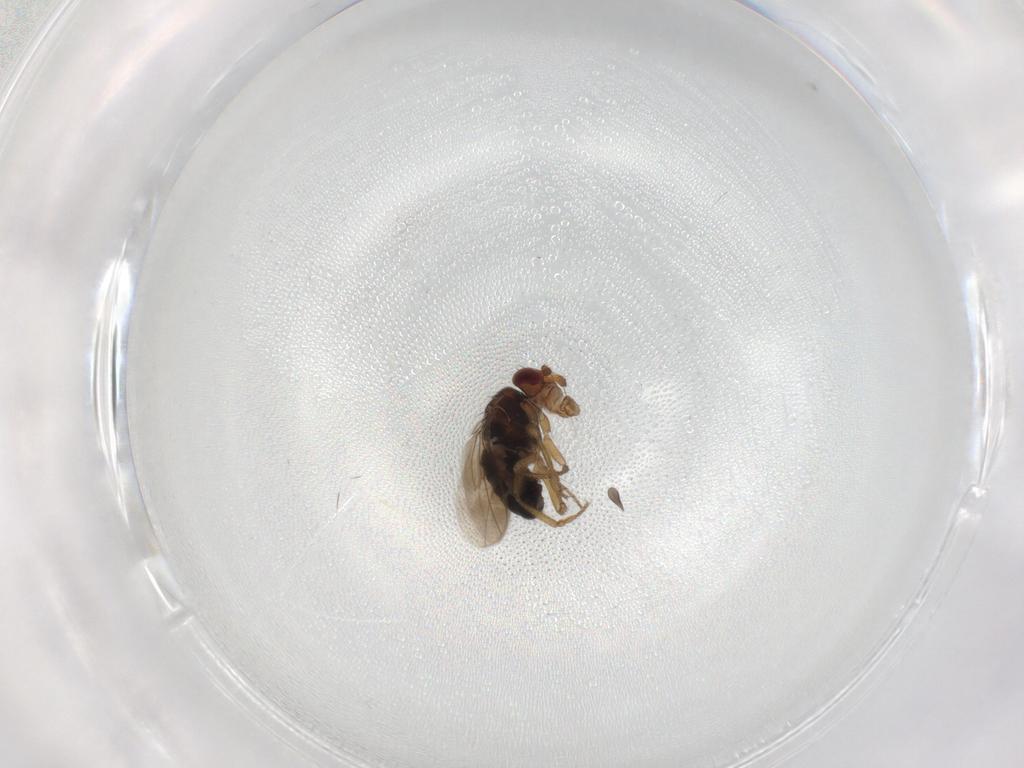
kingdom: Animalia
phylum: Arthropoda
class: Insecta
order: Diptera
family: Sphaeroceridae
